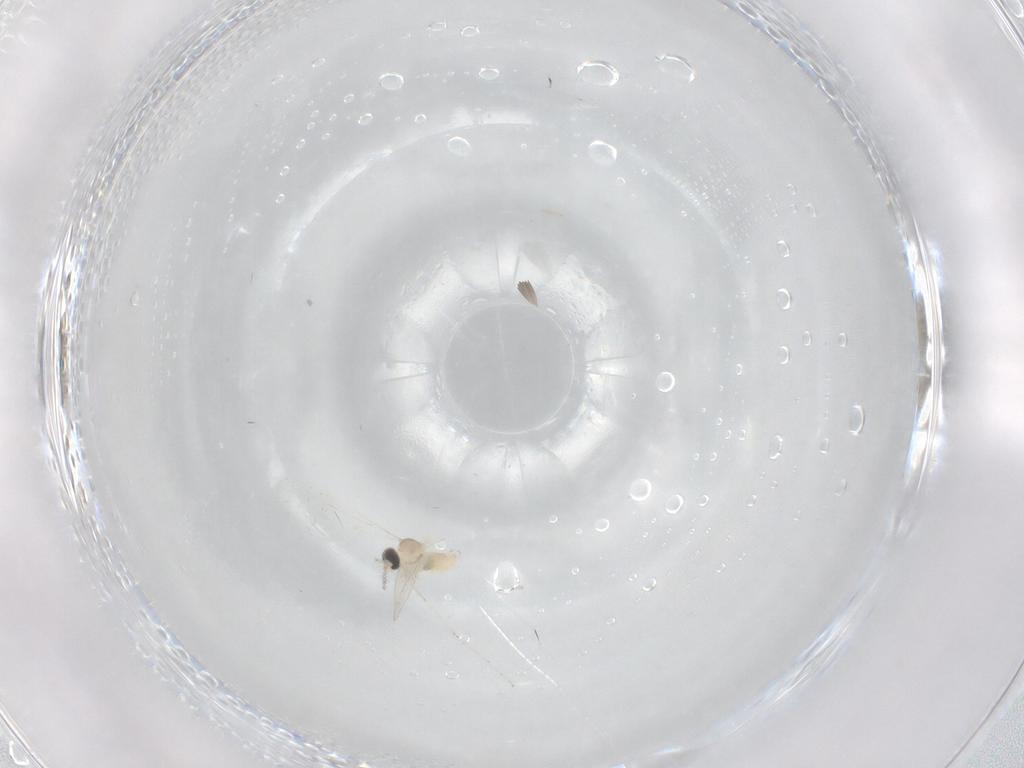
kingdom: Animalia
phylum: Arthropoda
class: Insecta
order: Diptera
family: Cecidomyiidae
